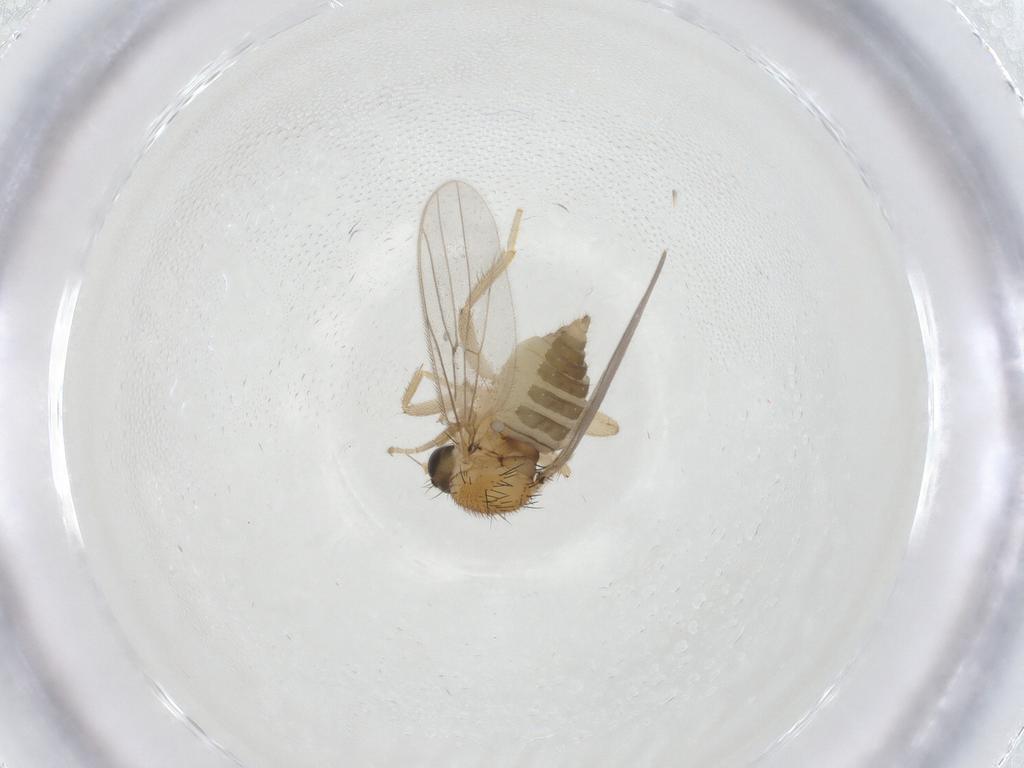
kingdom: Animalia
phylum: Arthropoda
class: Insecta
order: Diptera
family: Hybotidae
